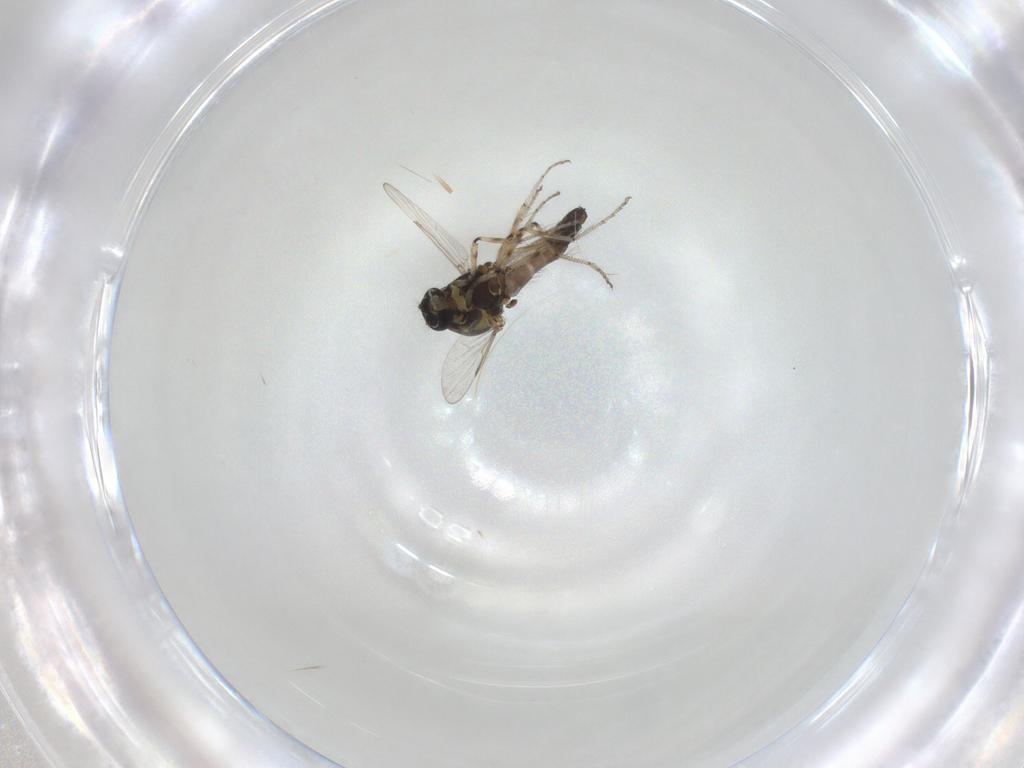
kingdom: Animalia
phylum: Arthropoda
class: Insecta
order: Diptera
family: Ceratopogonidae
